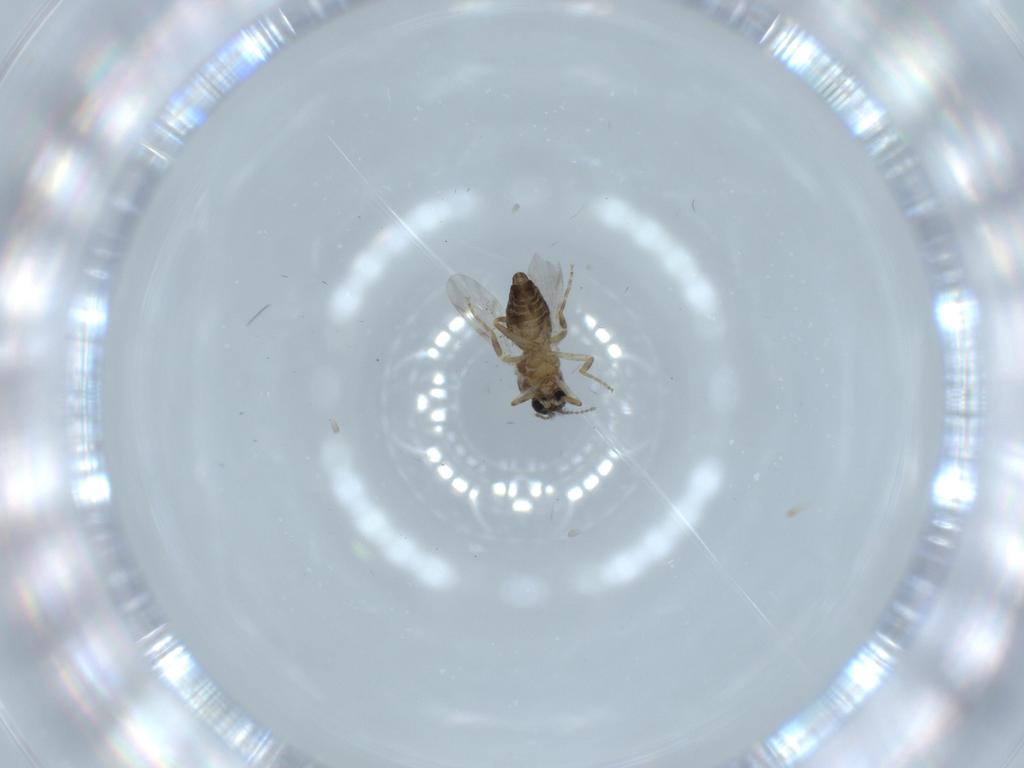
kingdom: Animalia
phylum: Arthropoda
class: Insecta
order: Diptera
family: Ceratopogonidae
